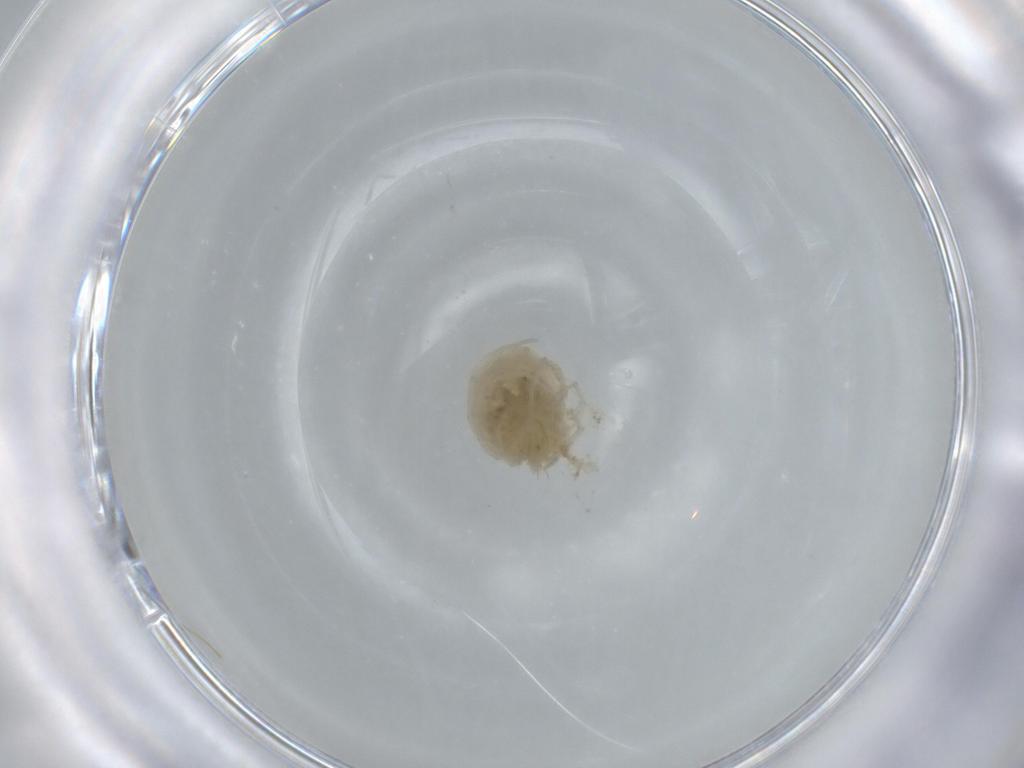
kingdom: Animalia
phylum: Arthropoda
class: Arachnida
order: Trombidiformes
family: Hygrobatidae
